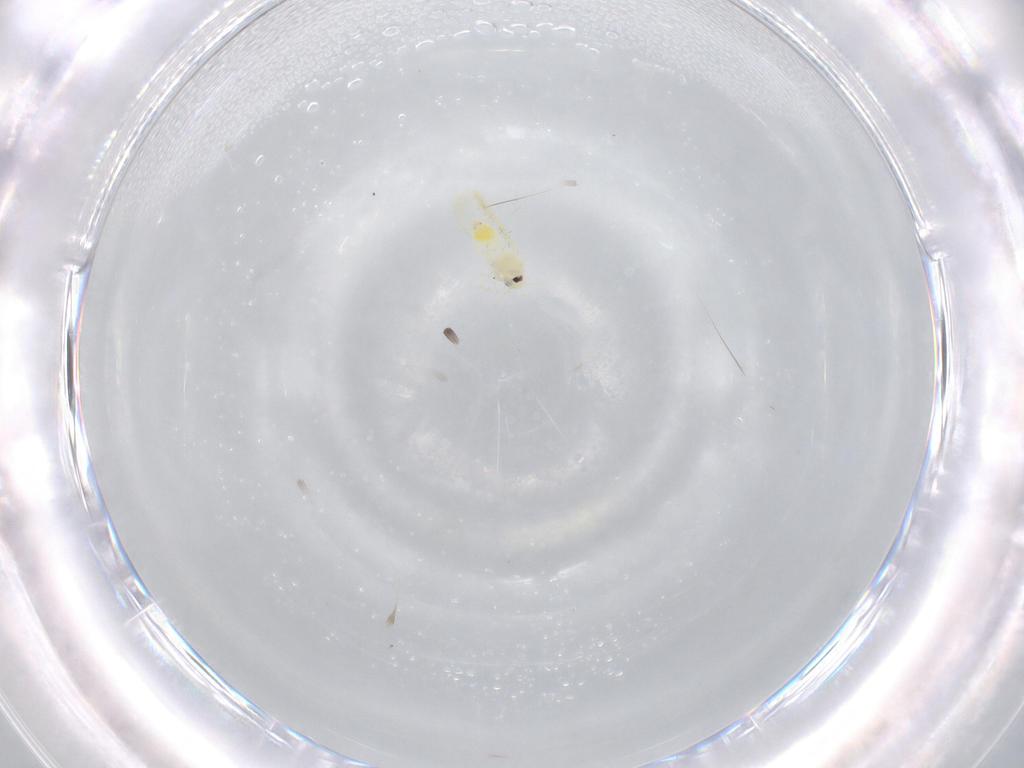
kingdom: Animalia
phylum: Arthropoda
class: Insecta
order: Hemiptera
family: Aleyrodidae
